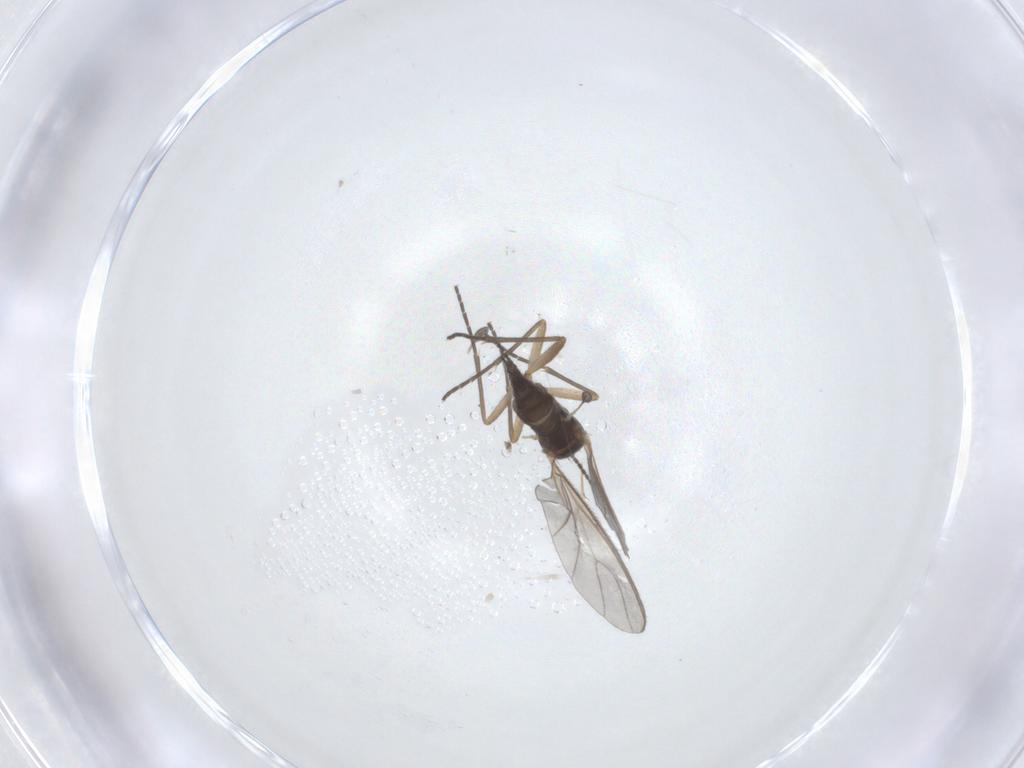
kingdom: Animalia
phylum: Arthropoda
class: Insecta
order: Diptera
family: Sciaridae
